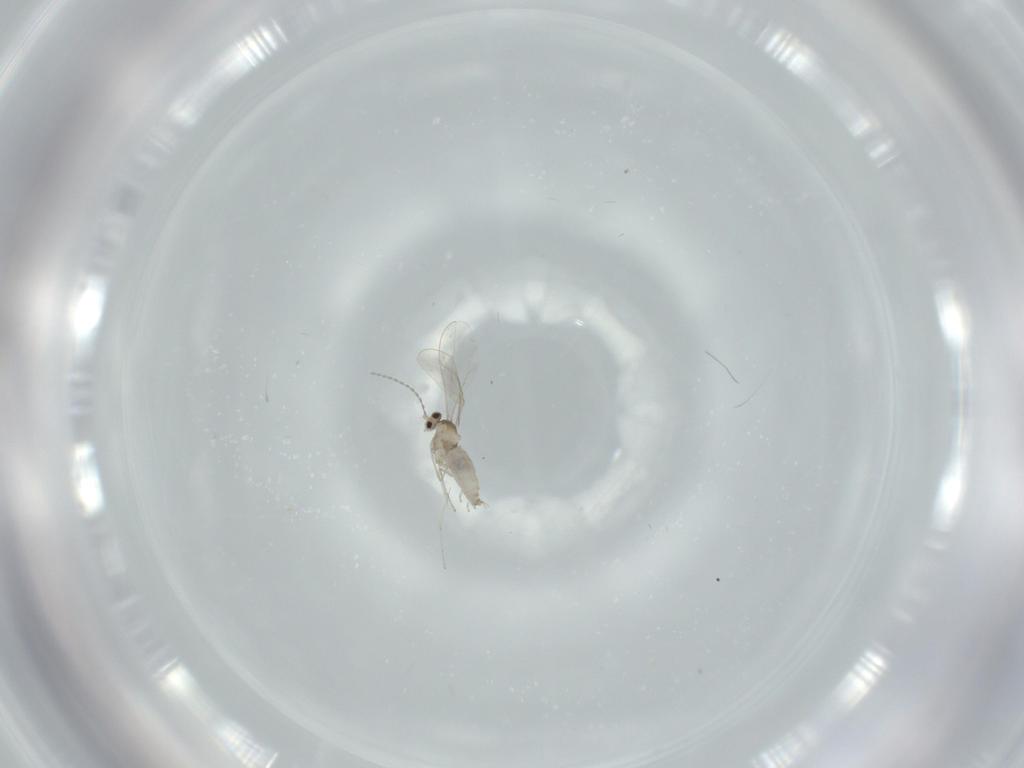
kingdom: Animalia
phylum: Arthropoda
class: Insecta
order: Diptera
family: Cecidomyiidae
